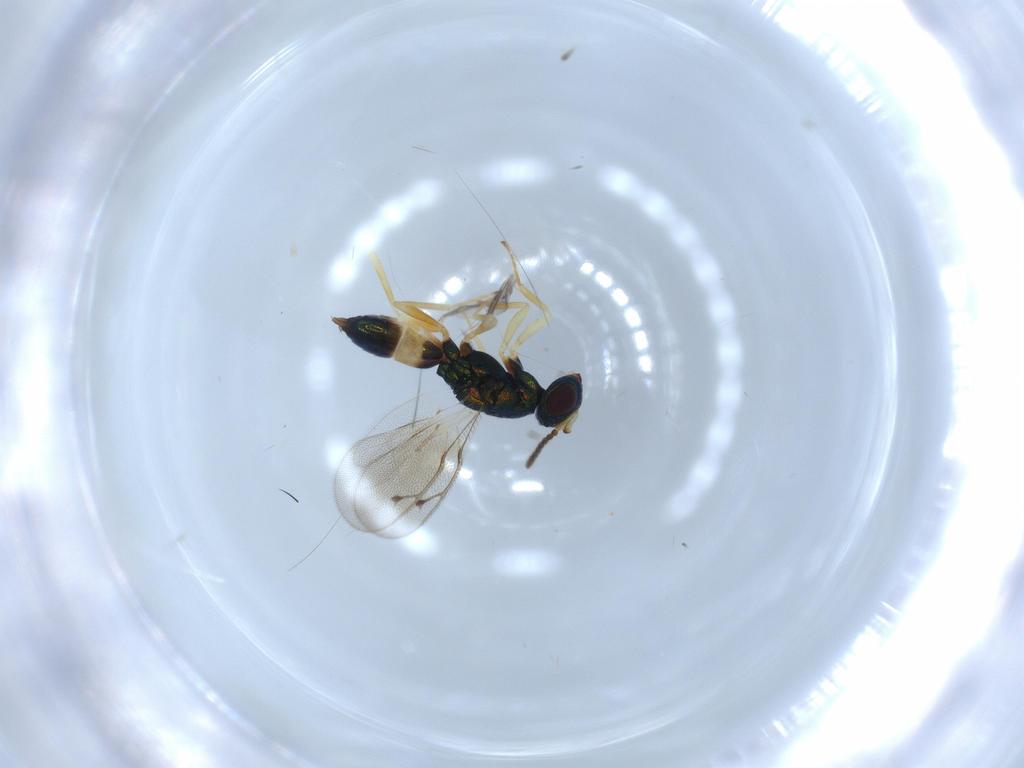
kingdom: Animalia
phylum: Arthropoda
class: Insecta
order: Hymenoptera
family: Pteromalidae
